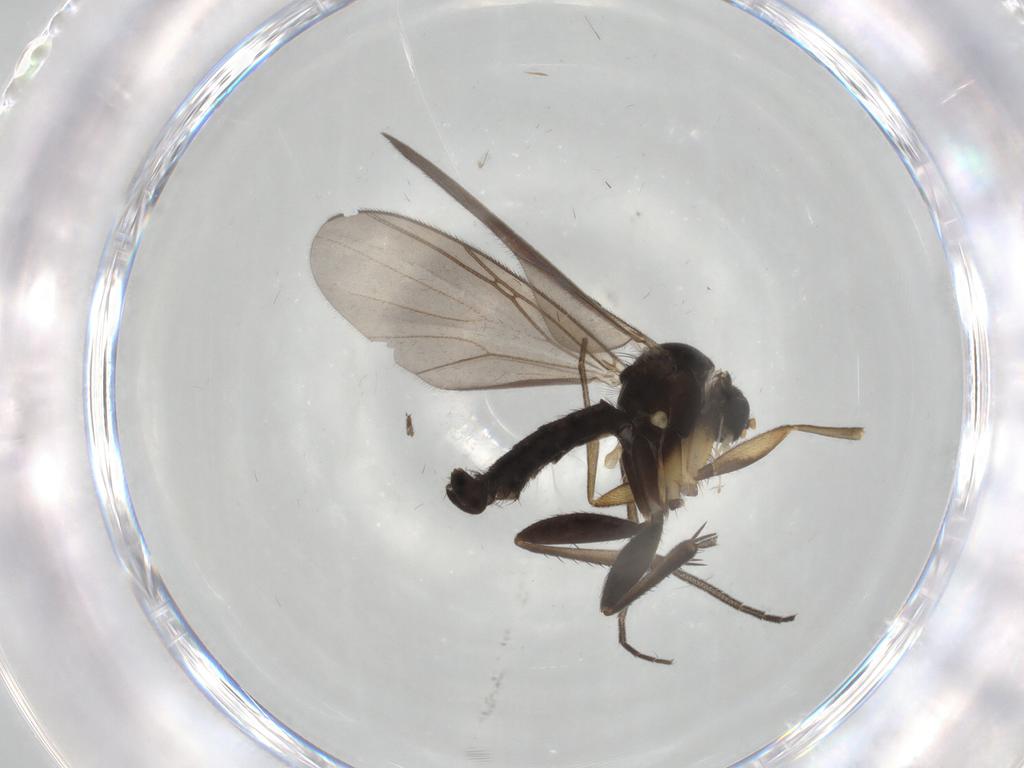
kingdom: Animalia
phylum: Arthropoda
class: Insecta
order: Diptera
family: Mycetophilidae
